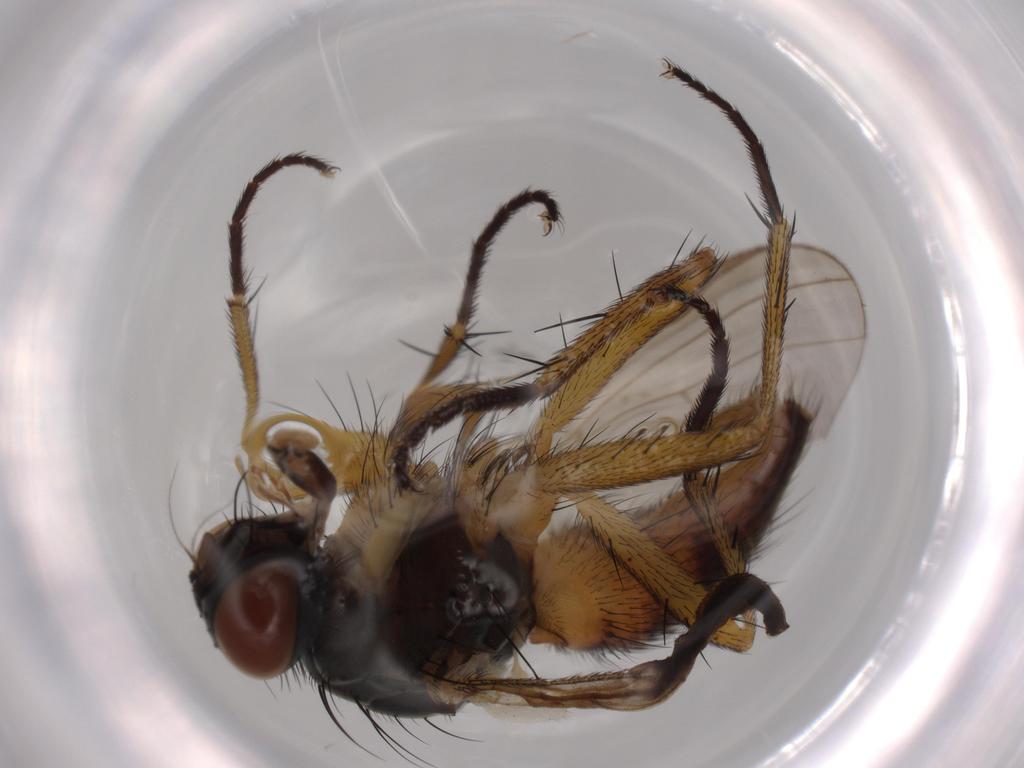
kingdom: Animalia
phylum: Arthropoda
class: Insecta
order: Diptera
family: Muscidae
